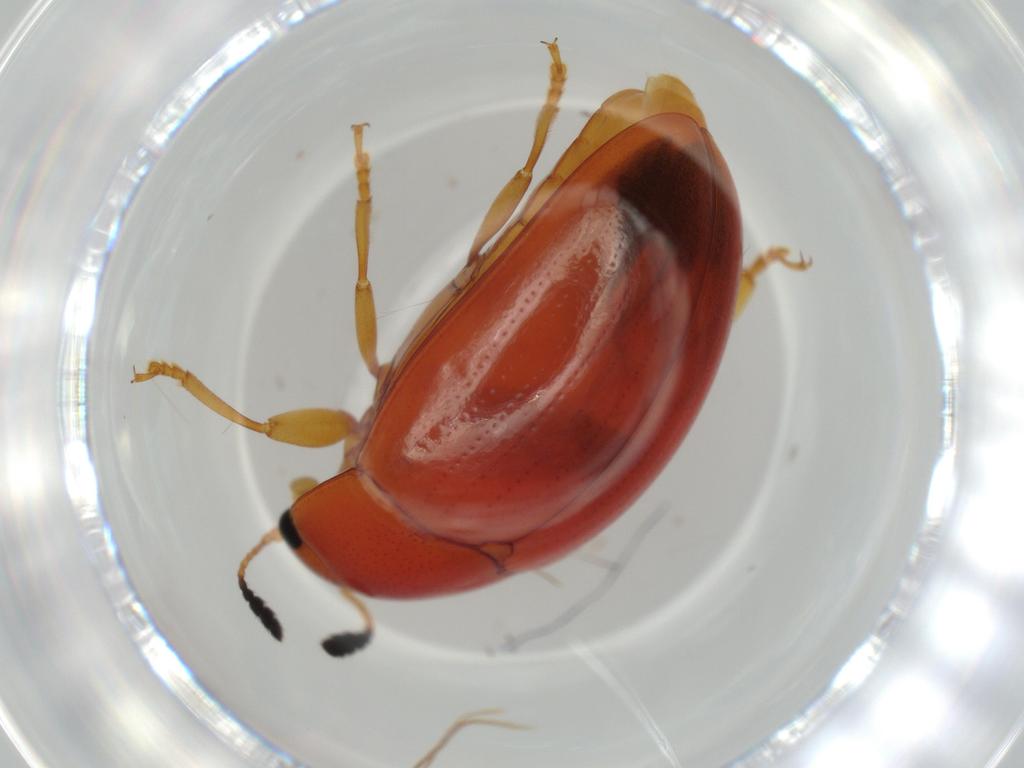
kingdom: Animalia
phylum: Arthropoda
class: Insecta
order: Coleoptera
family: Erotylidae
